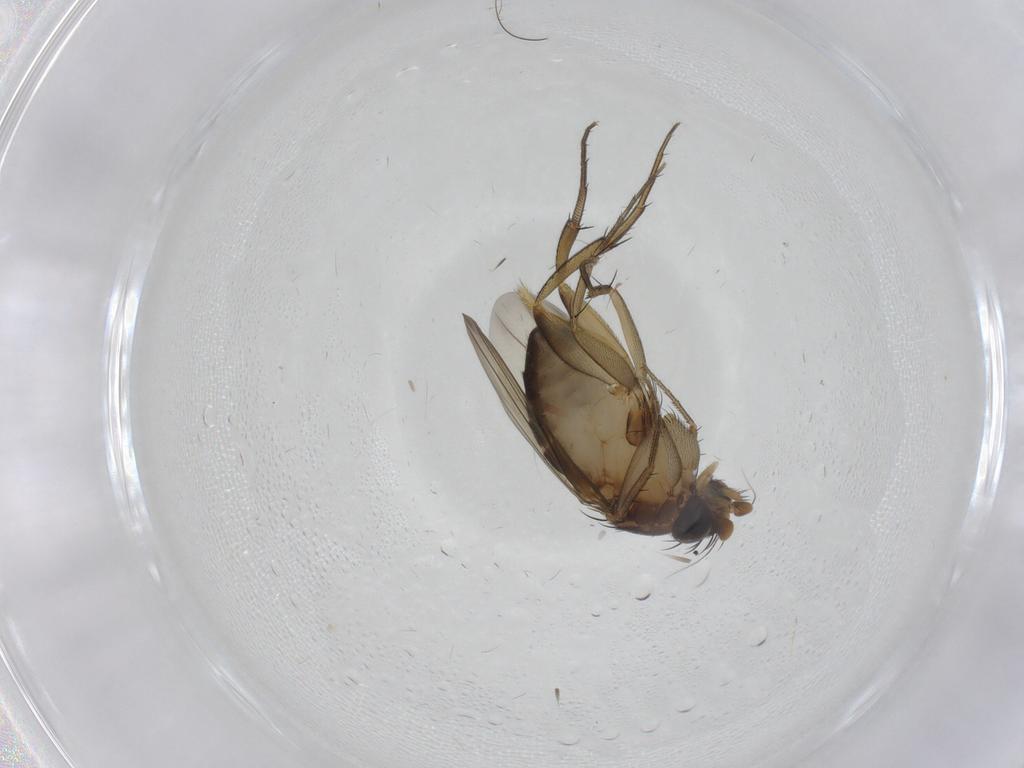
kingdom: Animalia
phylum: Arthropoda
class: Insecta
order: Diptera
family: Phoridae
